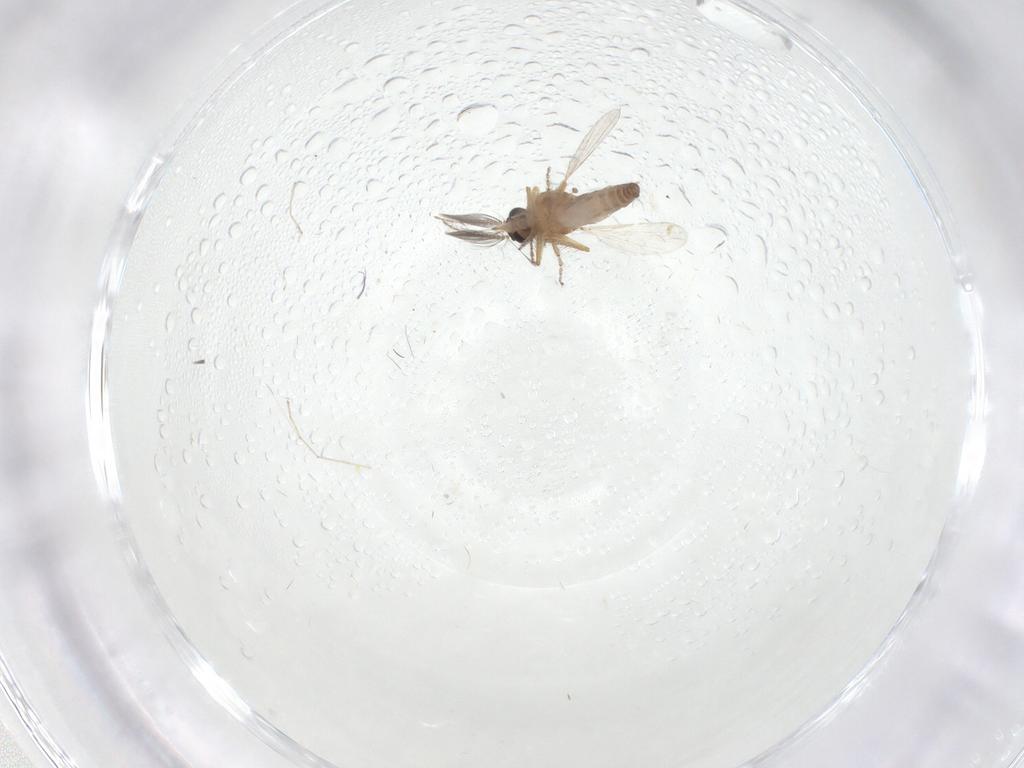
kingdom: Animalia
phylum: Arthropoda
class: Insecta
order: Diptera
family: Ceratopogonidae
